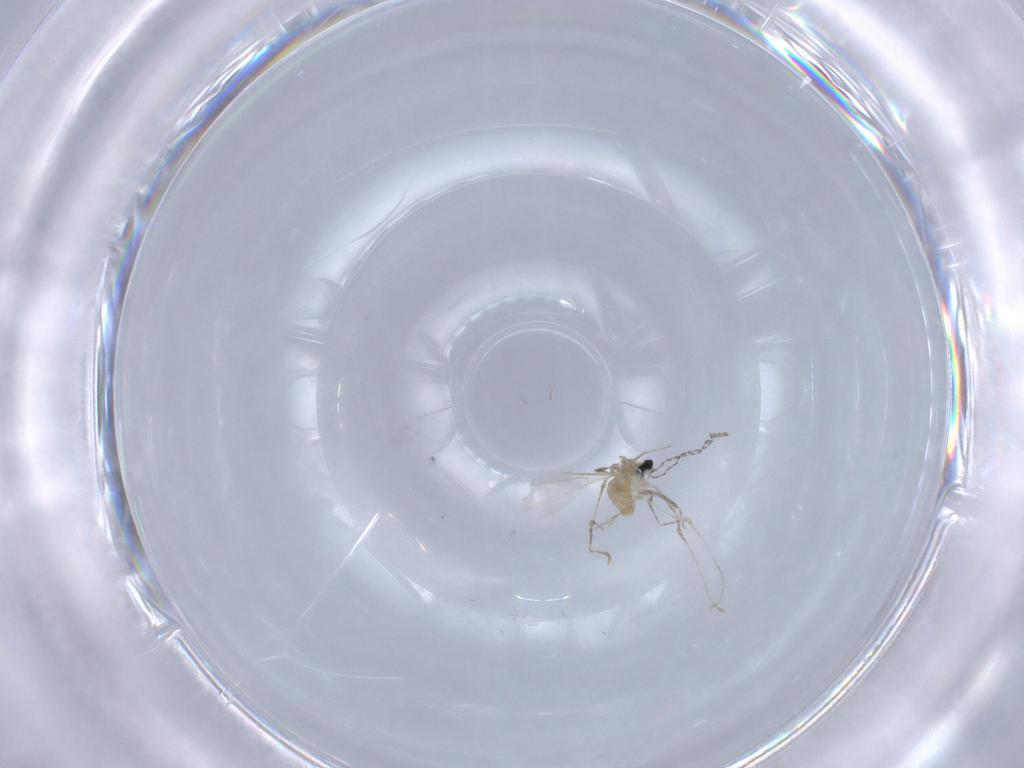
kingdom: Animalia
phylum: Arthropoda
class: Insecta
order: Diptera
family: Cecidomyiidae
